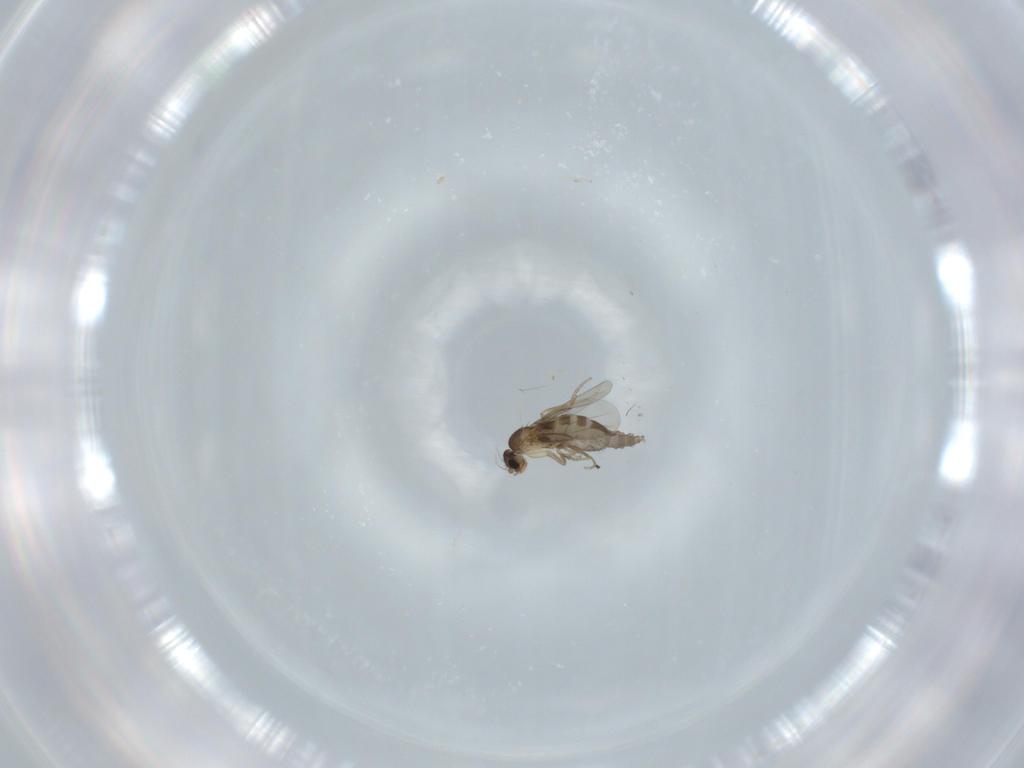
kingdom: Animalia
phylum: Arthropoda
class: Insecta
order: Diptera
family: Phoridae
